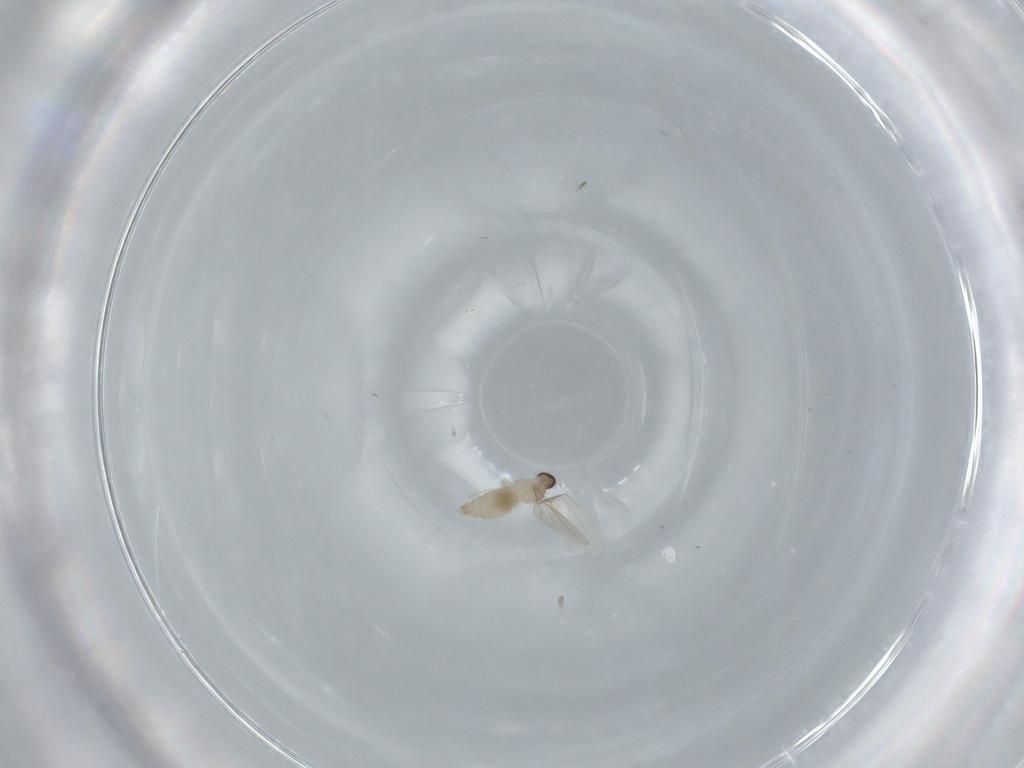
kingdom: Animalia
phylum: Arthropoda
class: Insecta
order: Diptera
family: Cecidomyiidae
